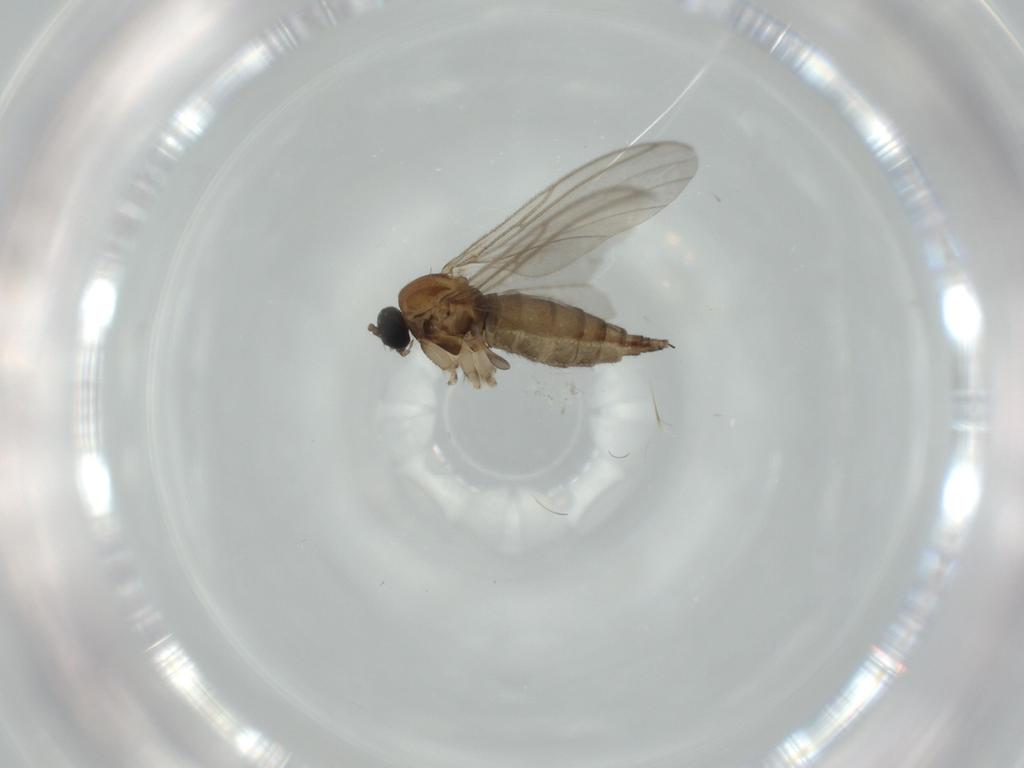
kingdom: Animalia
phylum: Arthropoda
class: Insecta
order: Diptera
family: Sciaridae
